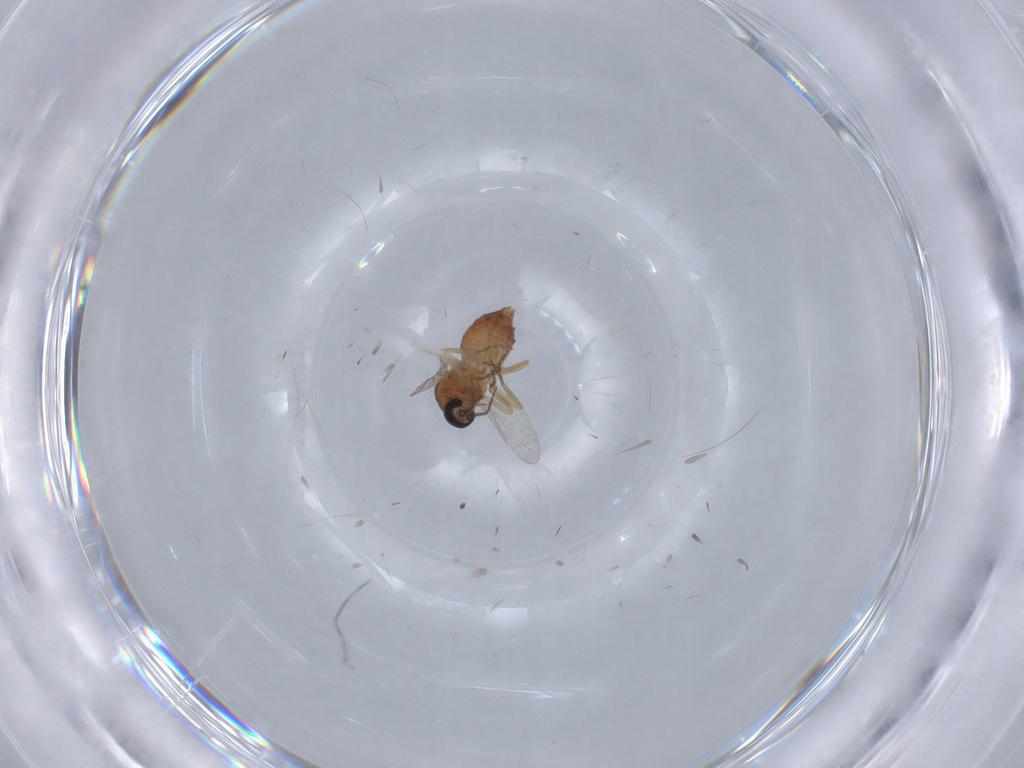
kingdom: Animalia
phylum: Arthropoda
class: Insecta
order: Diptera
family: Ceratopogonidae
